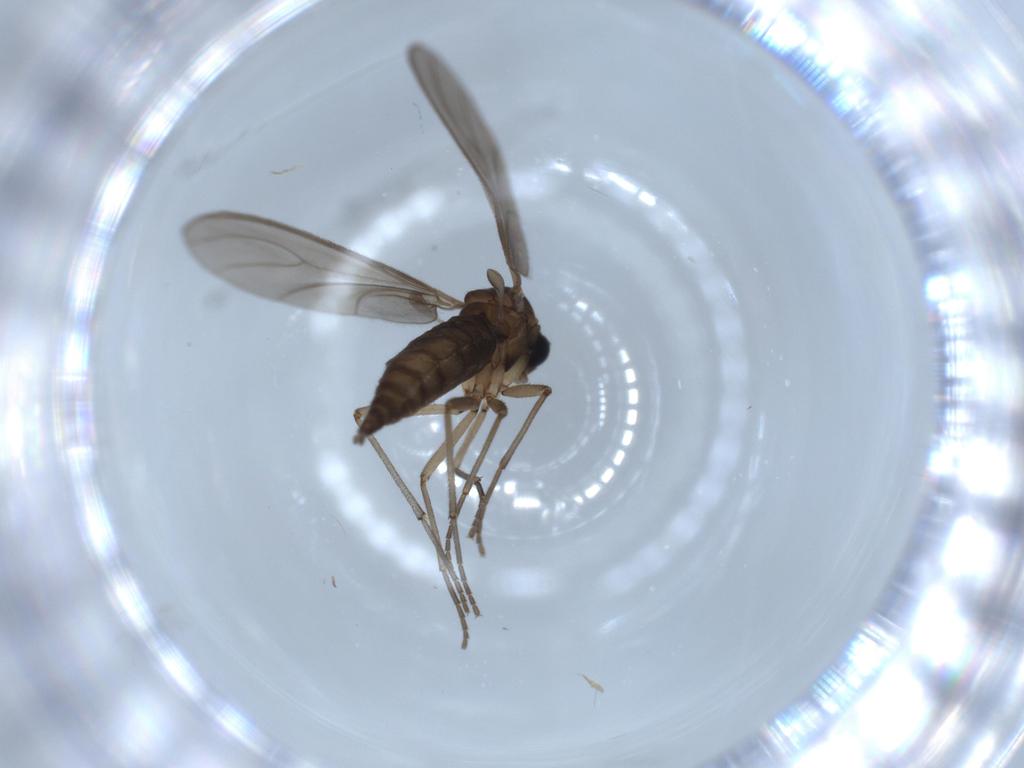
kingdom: Animalia
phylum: Arthropoda
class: Insecta
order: Diptera
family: Sciaridae
